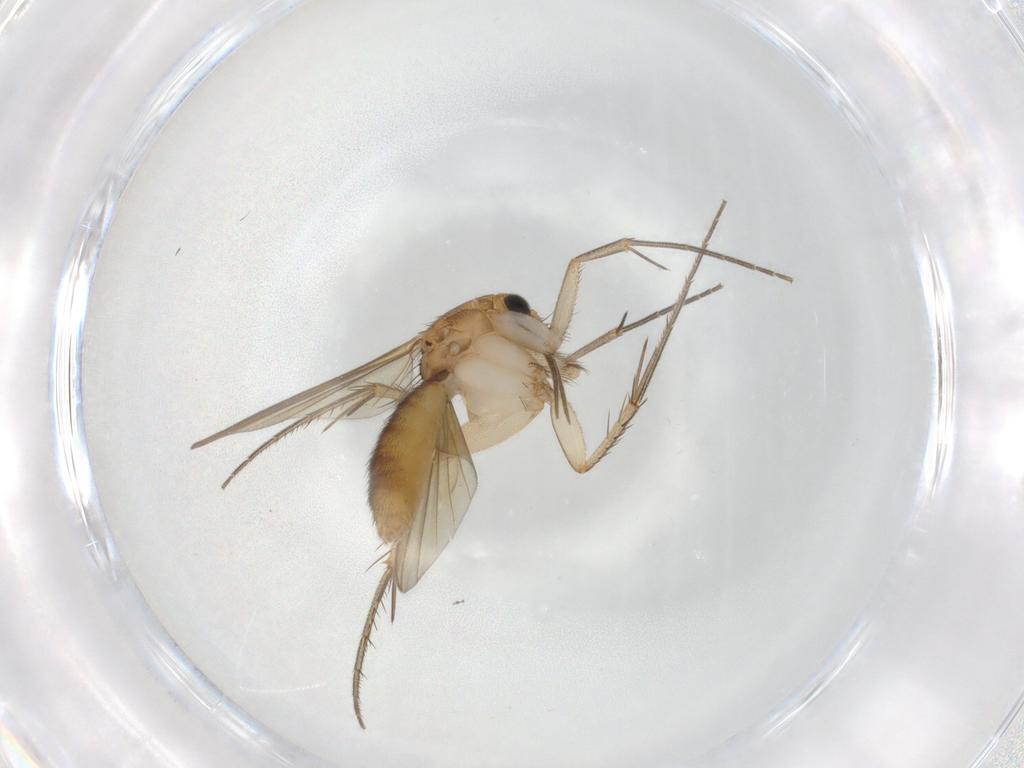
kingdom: Animalia
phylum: Arthropoda
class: Insecta
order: Diptera
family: Mycetophilidae
